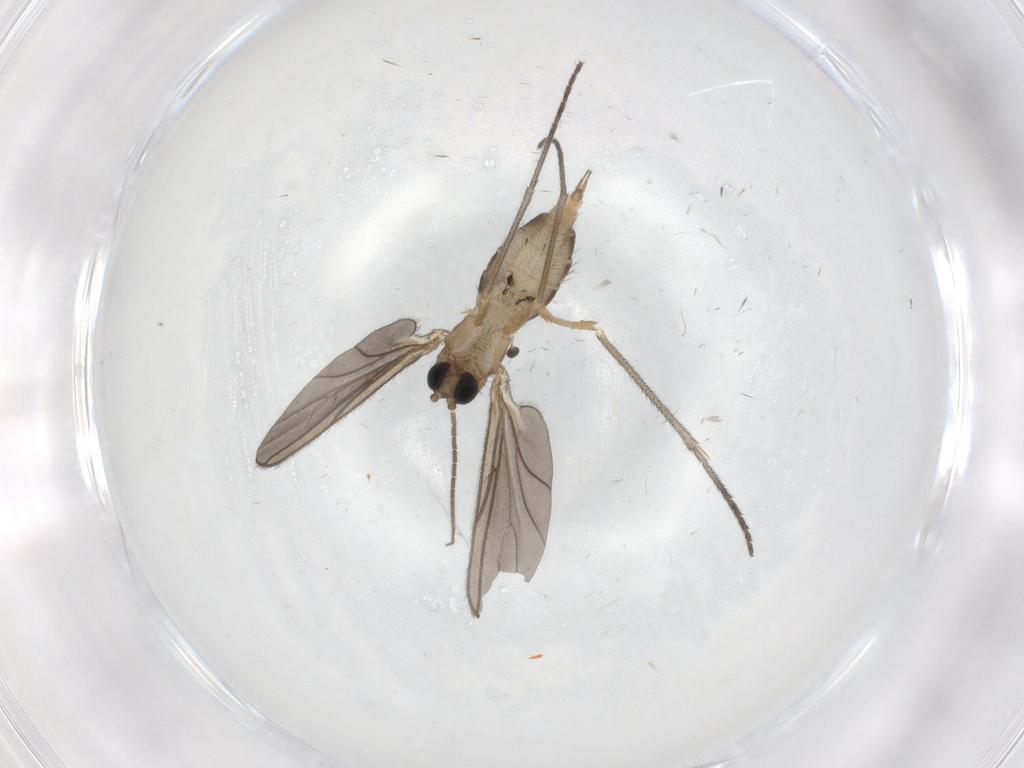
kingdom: Animalia
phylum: Arthropoda
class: Insecta
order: Diptera
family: Sciaridae
